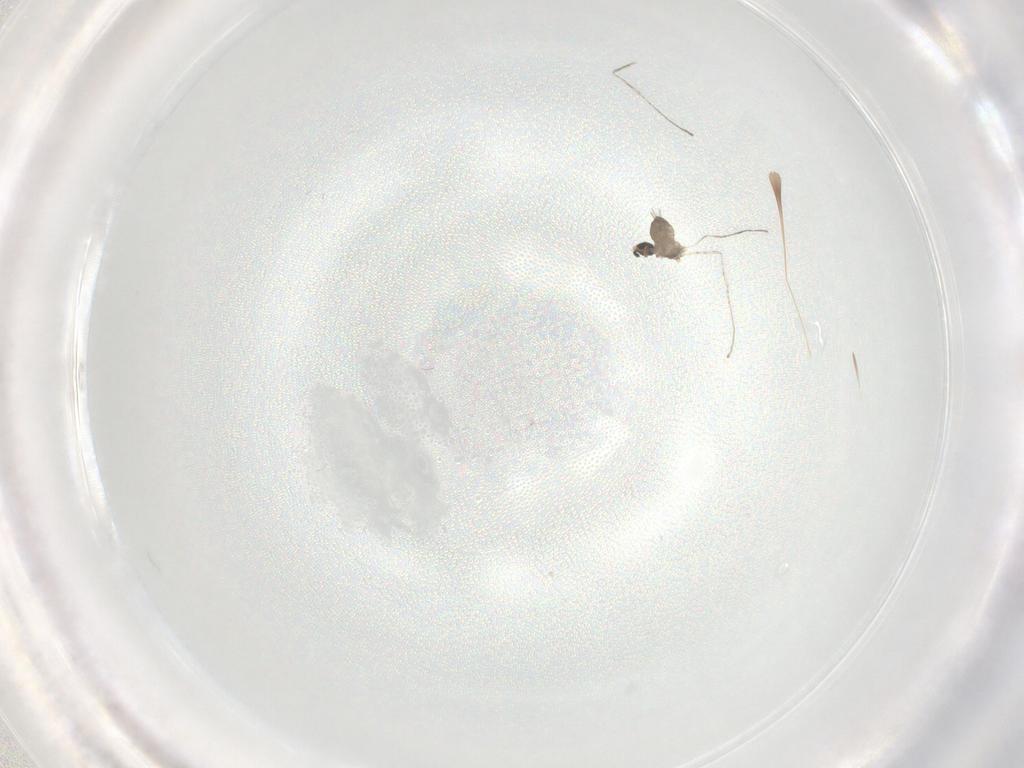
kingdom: Animalia
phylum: Arthropoda
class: Insecta
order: Diptera
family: Cecidomyiidae
